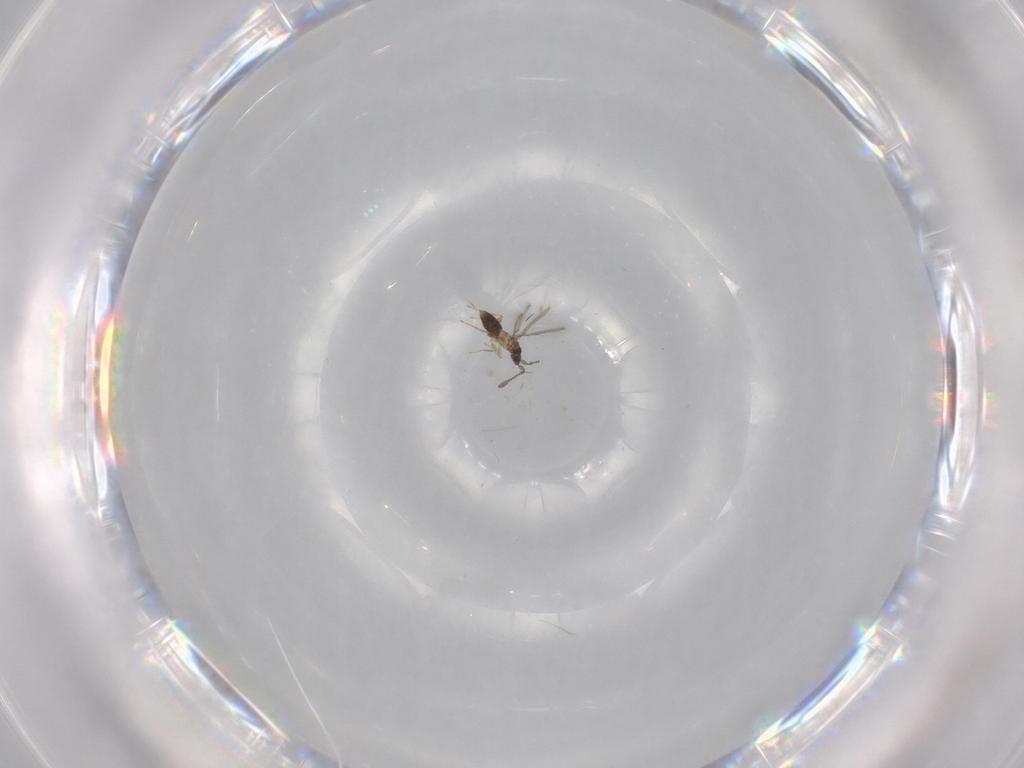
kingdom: Animalia
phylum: Arthropoda
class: Insecta
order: Hymenoptera
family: Mymaridae
